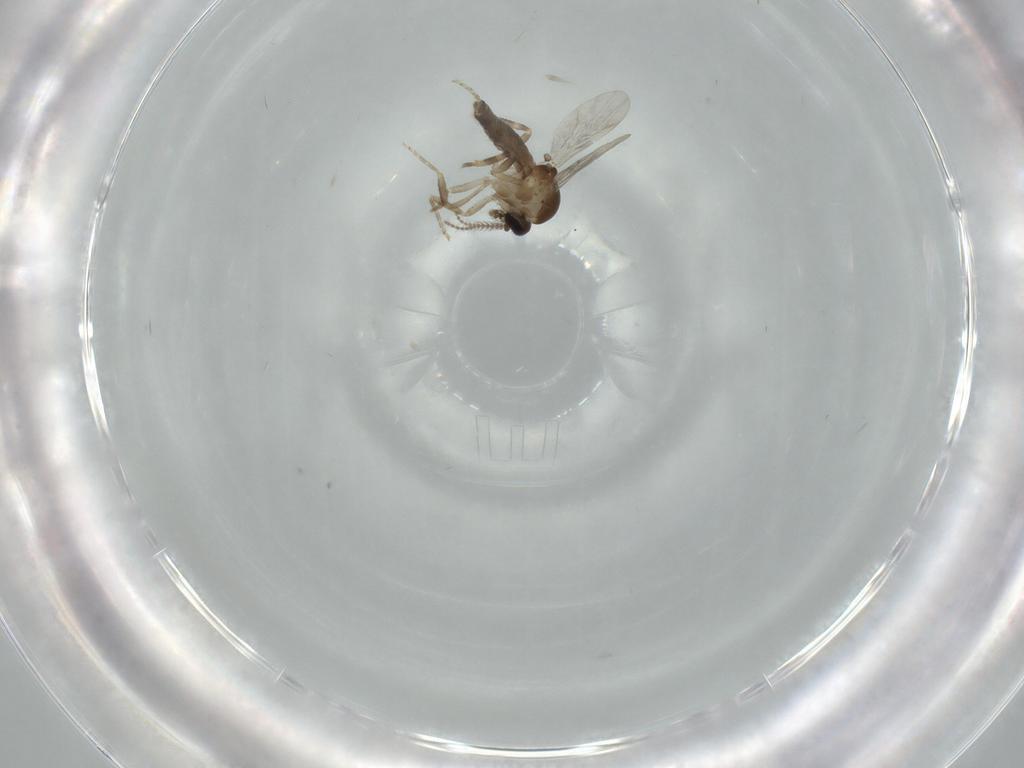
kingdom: Animalia
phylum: Arthropoda
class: Insecta
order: Diptera
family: Ceratopogonidae
